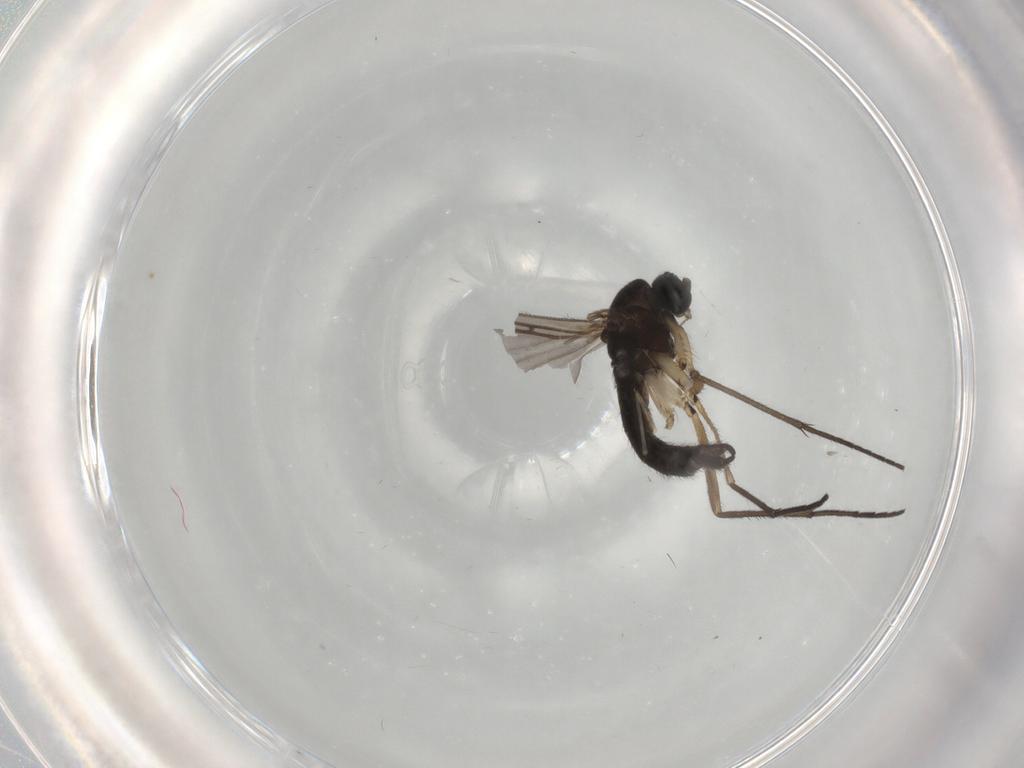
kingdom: Animalia
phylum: Arthropoda
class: Insecta
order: Diptera
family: Sciaridae
